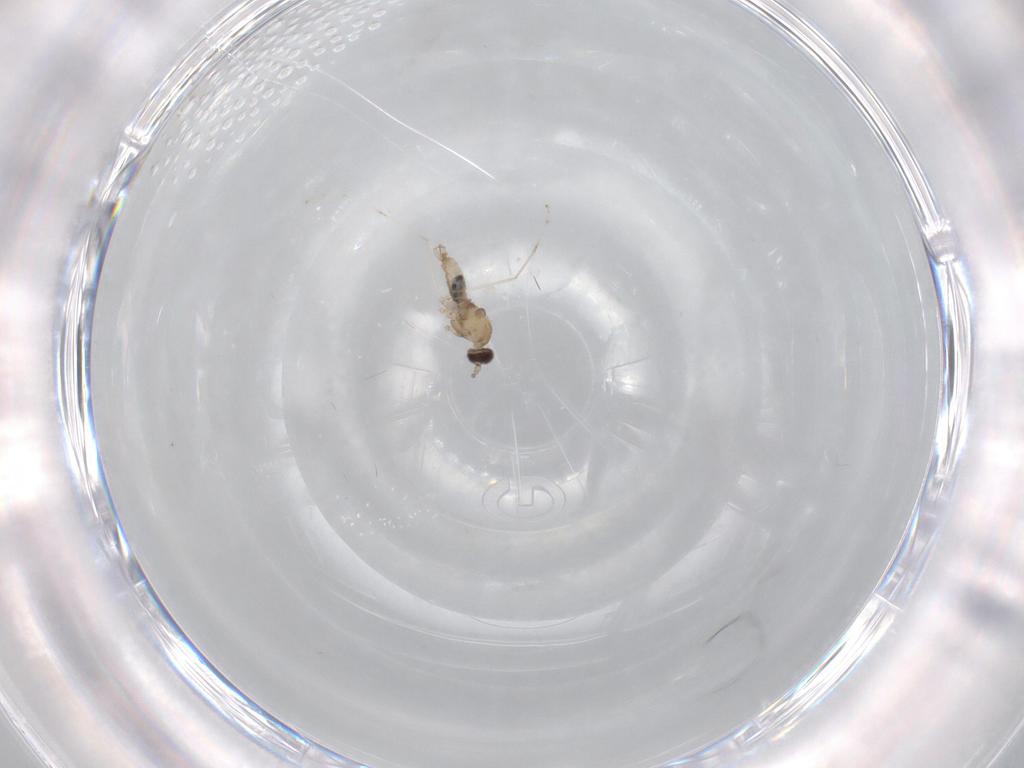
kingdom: Animalia
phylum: Arthropoda
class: Insecta
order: Diptera
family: Cecidomyiidae
